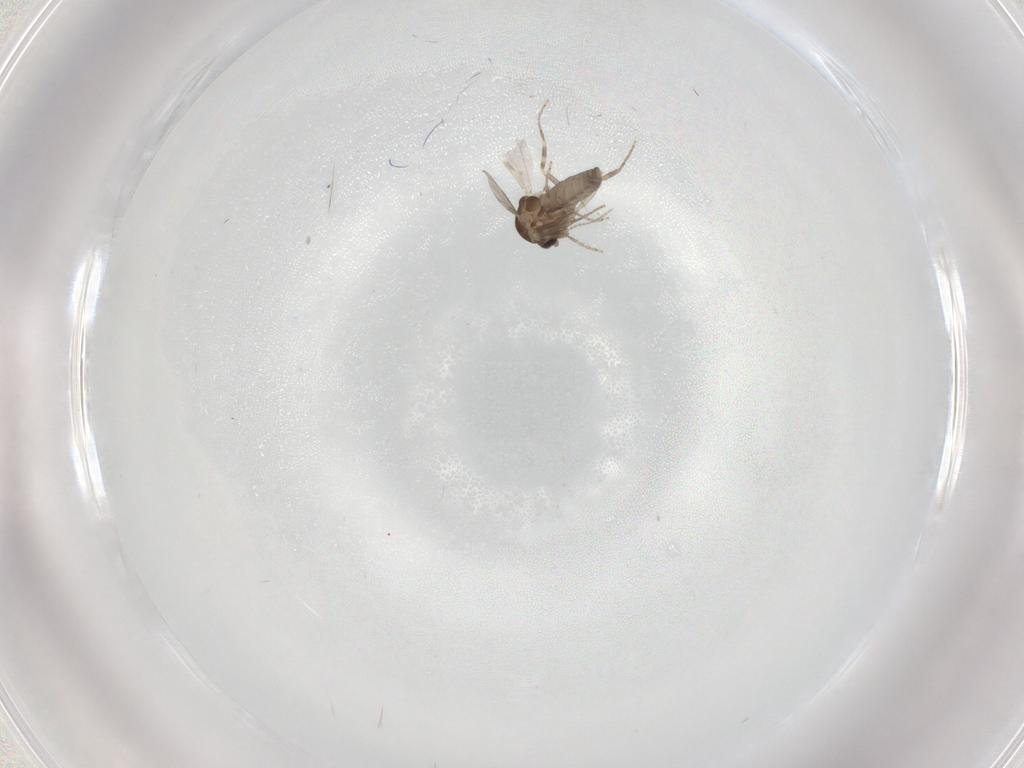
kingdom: Animalia
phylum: Arthropoda
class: Insecta
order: Diptera
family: Ceratopogonidae
